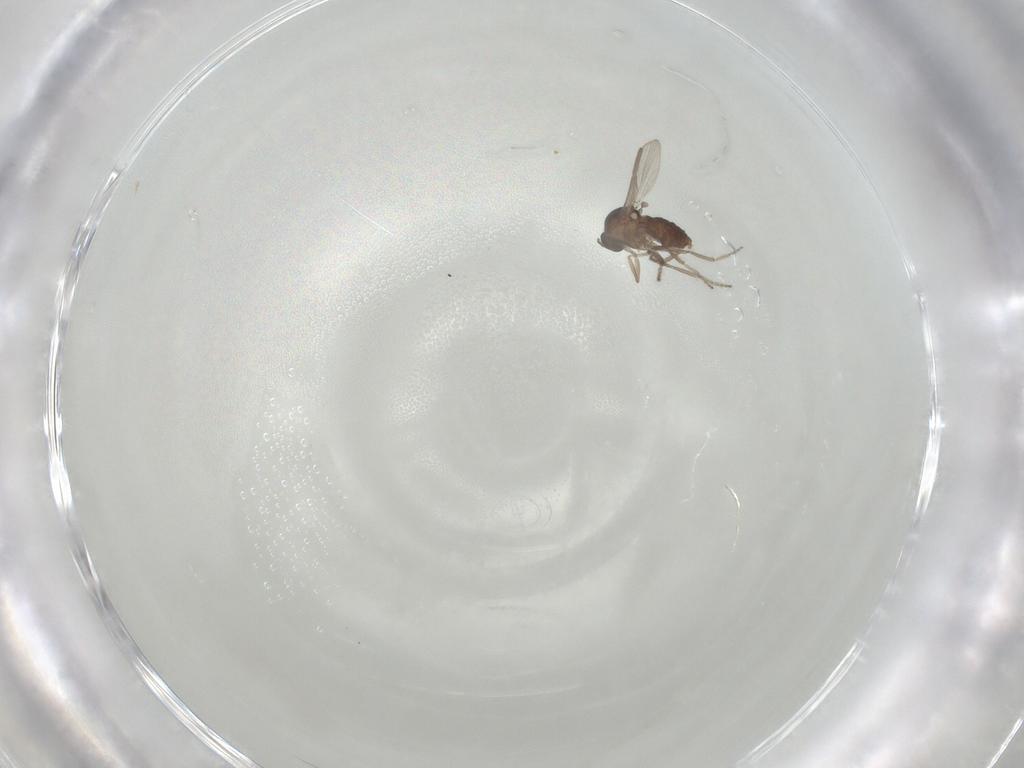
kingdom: Animalia
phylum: Arthropoda
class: Insecta
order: Diptera
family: Ceratopogonidae
